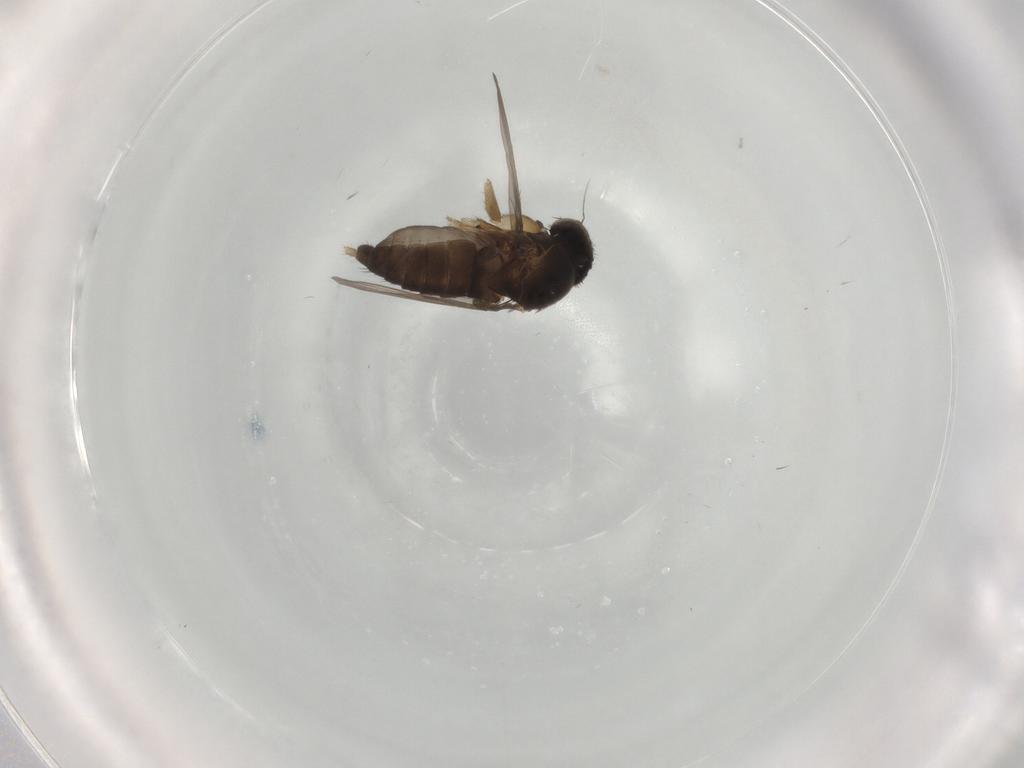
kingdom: Animalia
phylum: Arthropoda
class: Insecta
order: Diptera
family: Phoridae
